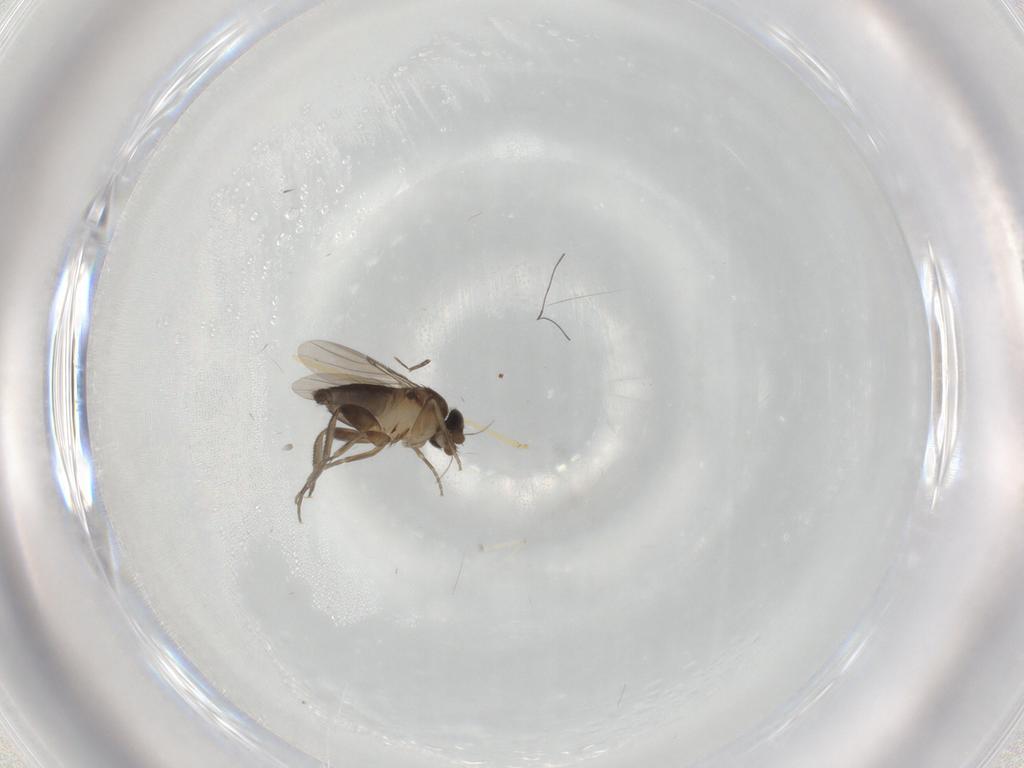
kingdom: Animalia
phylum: Arthropoda
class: Insecta
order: Diptera
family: Phoridae
